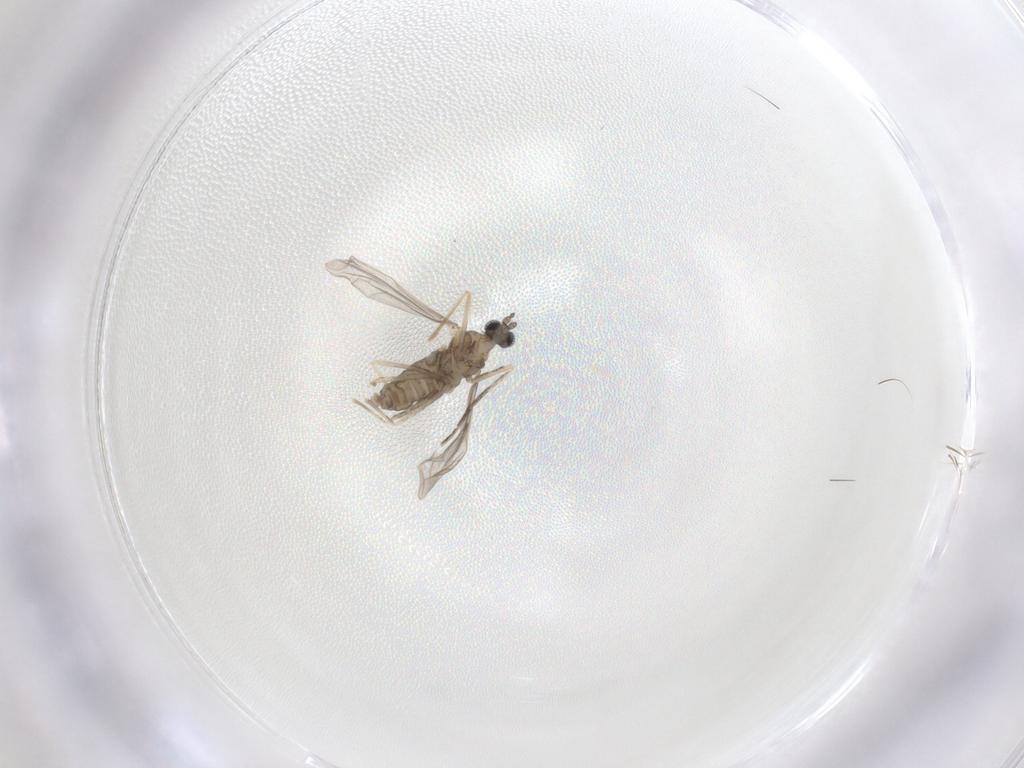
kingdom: Animalia
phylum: Arthropoda
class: Insecta
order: Diptera
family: Cecidomyiidae
